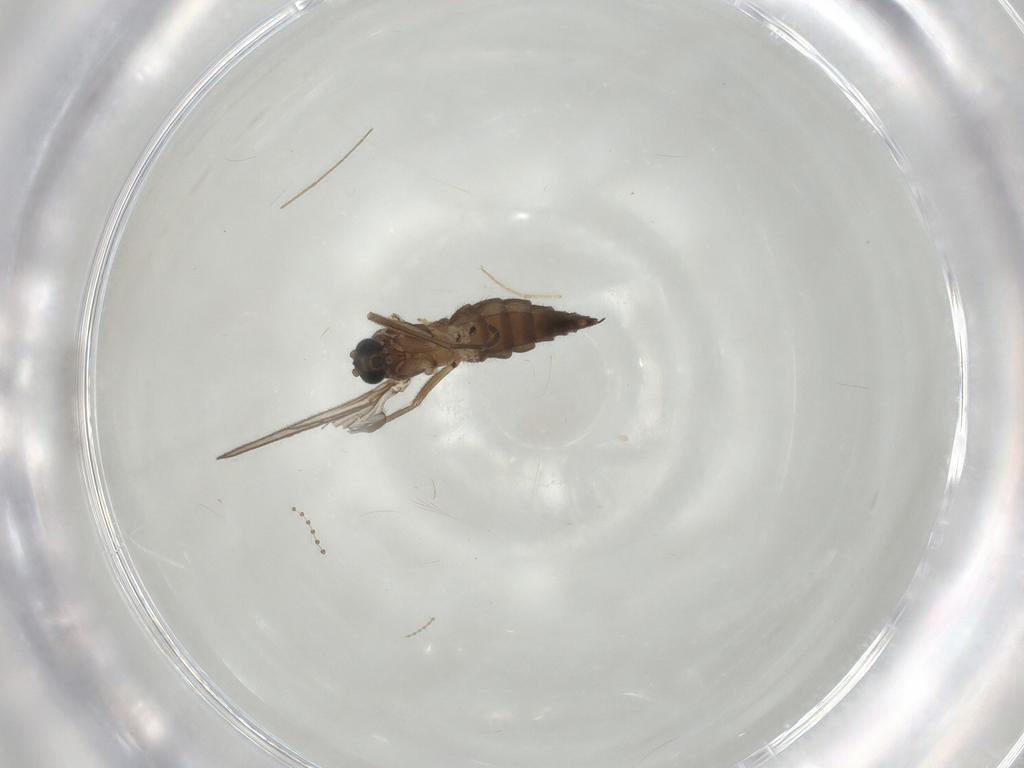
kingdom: Animalia
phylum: Arthropoda
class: Insecta
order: Diptera
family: Sciaridae
